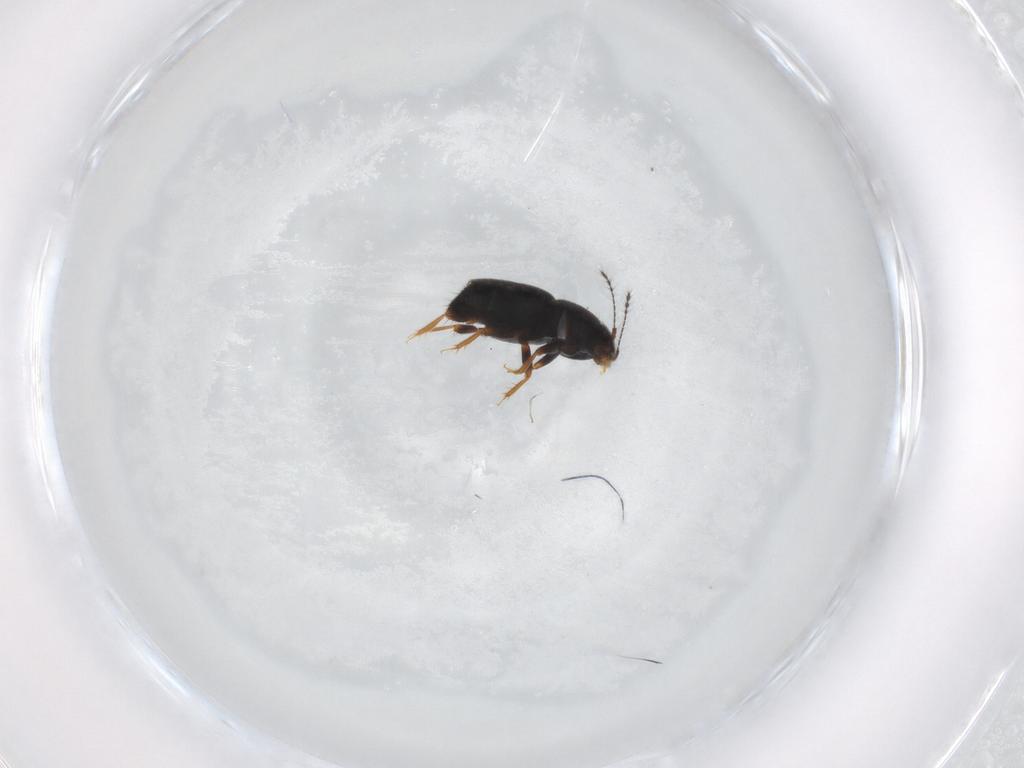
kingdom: Animalia
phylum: Arthropoda
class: Insecta
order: Coleoptera
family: Ptiliidae
